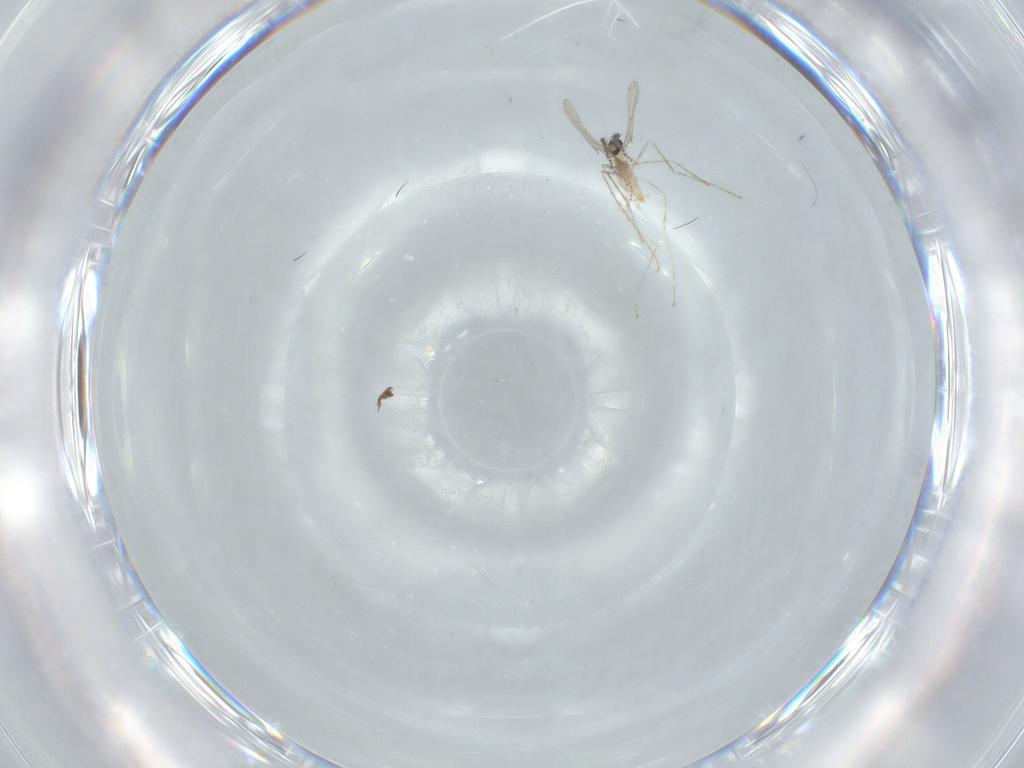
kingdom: Animalia
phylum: Arthropoda
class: Insecta
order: Diptera
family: Cecidomyiidae
